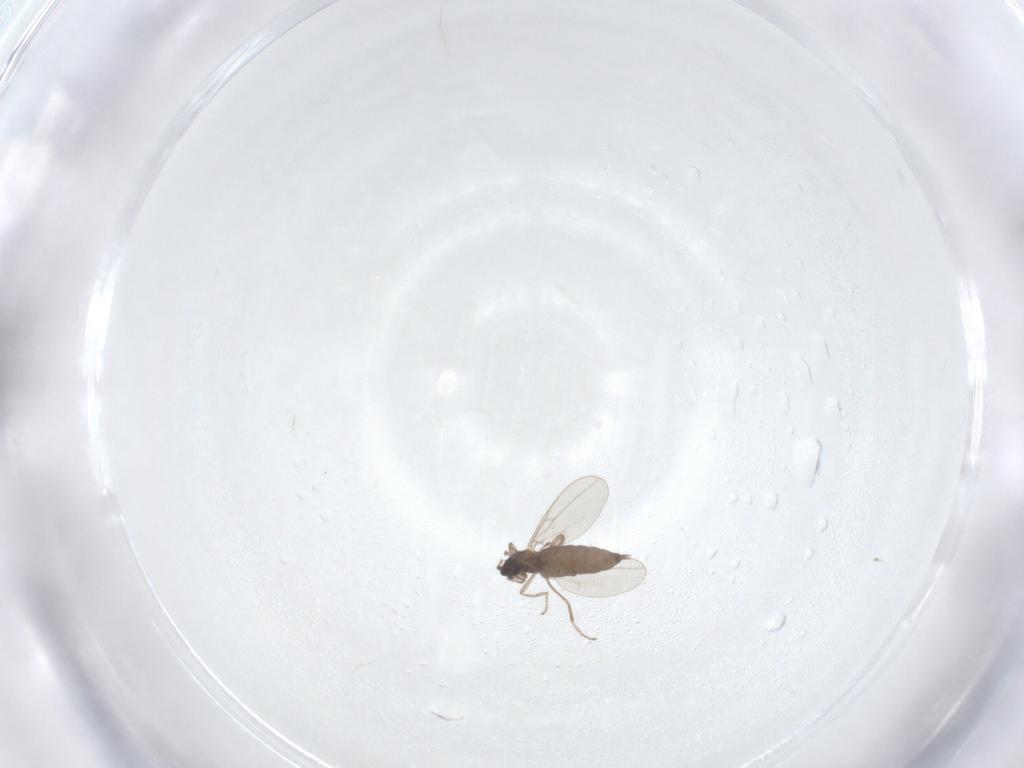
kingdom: Animalia
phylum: Arthropoda
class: Insecta
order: Diptera
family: Cecidomyiidae
